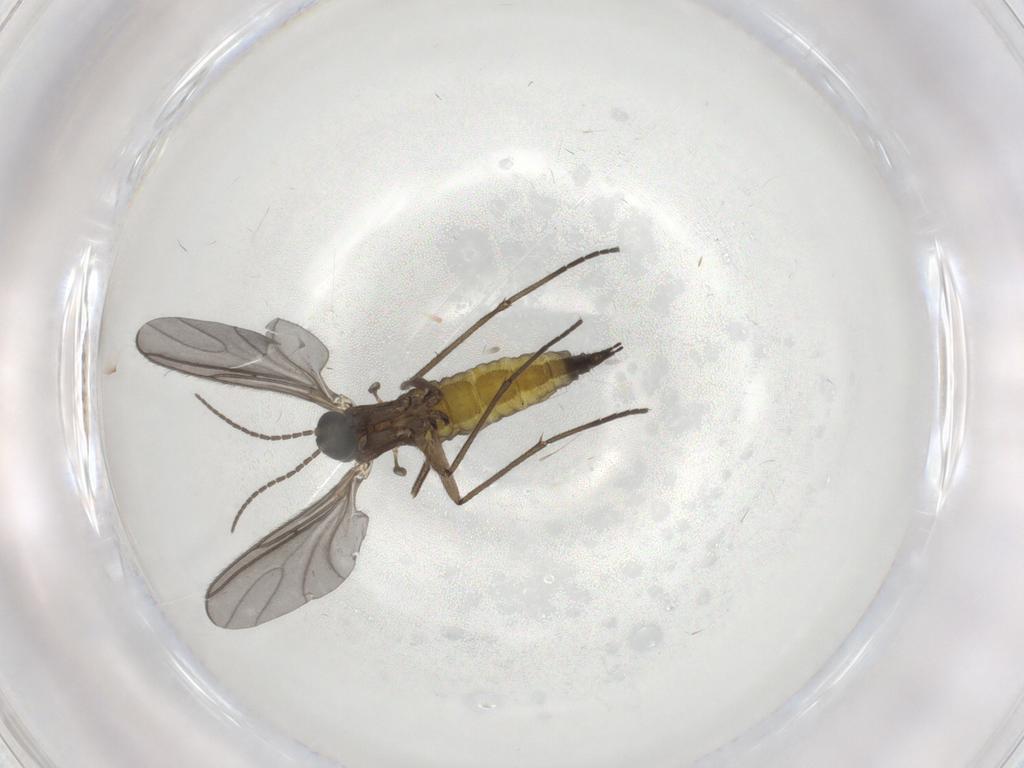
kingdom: Animalia
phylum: Arthropoda
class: Insecta
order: Diptera
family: Sciaridae
